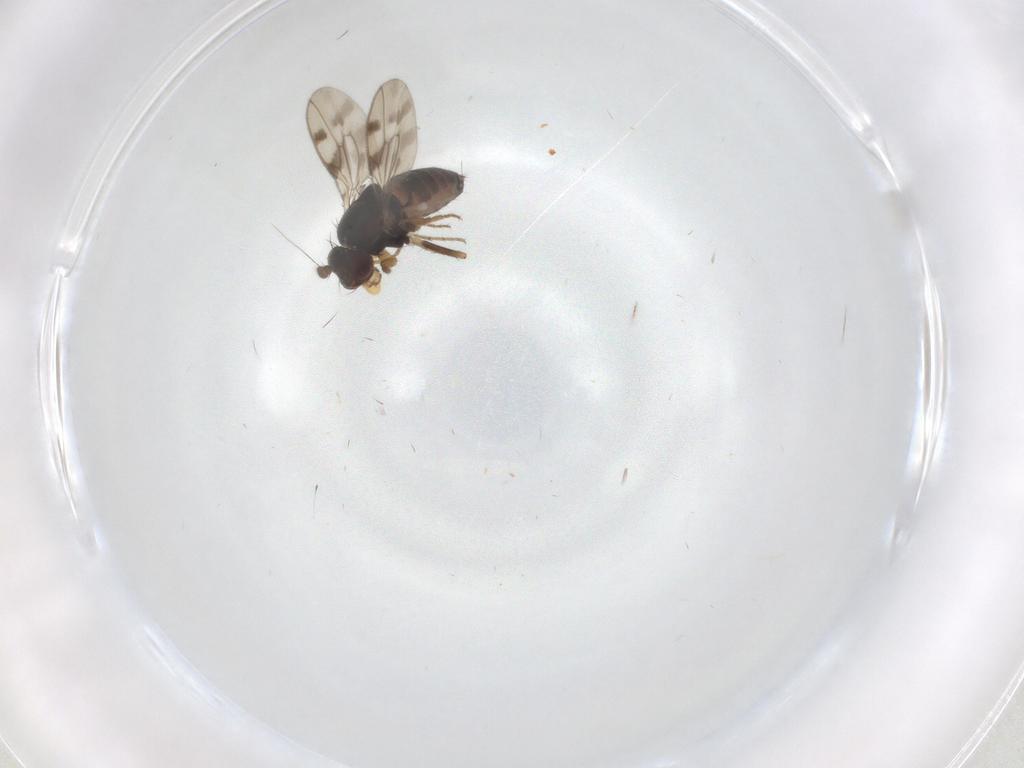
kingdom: Animalia
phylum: Arthropoda
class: Insecta
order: Diptera
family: Sphaeroceridae
